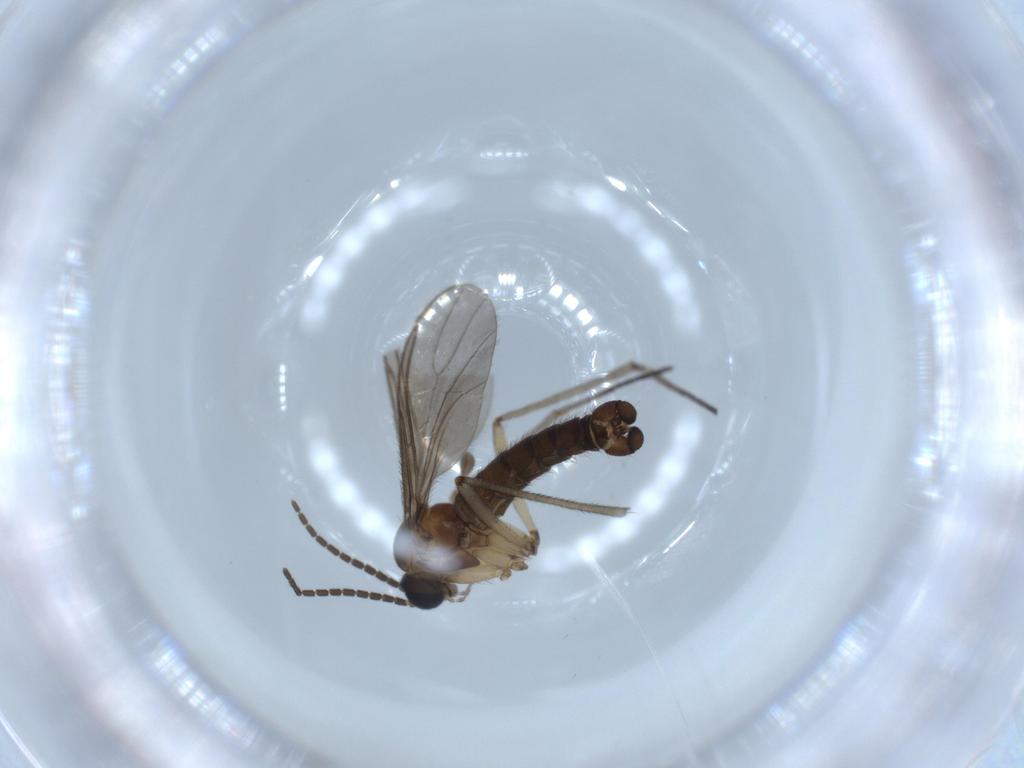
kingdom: Animalia
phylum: Arthropoda
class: Insecta
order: Diptera
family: Sciaridae
